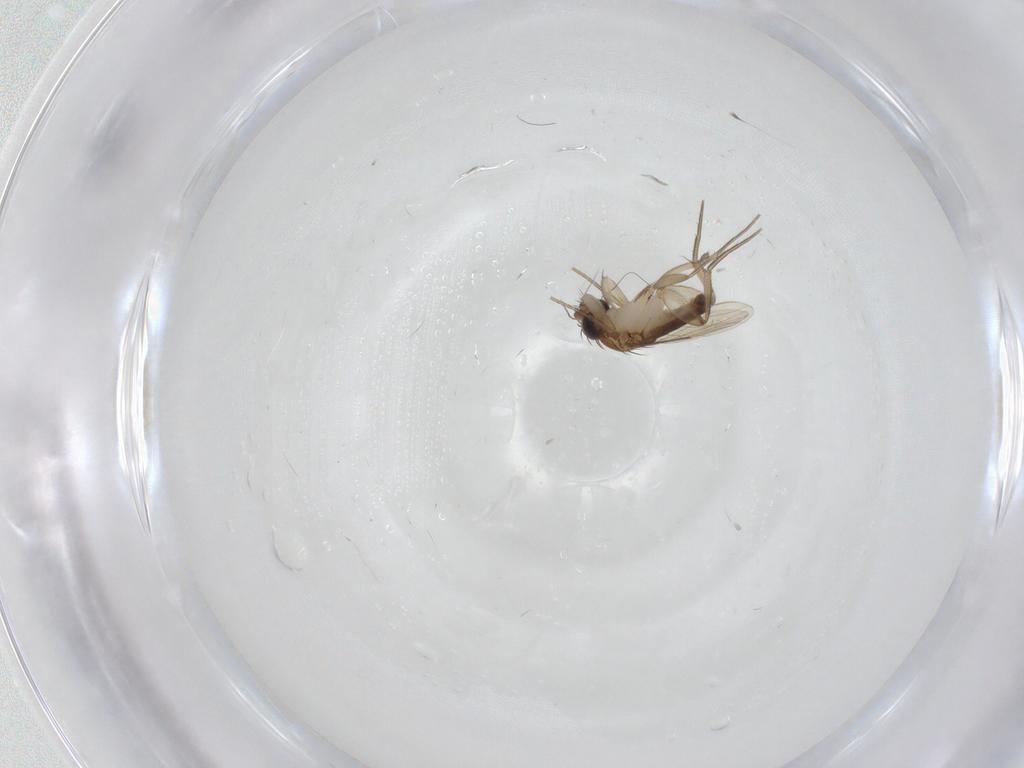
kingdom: Animalia
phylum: Arthropoda
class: Insecta
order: Diptera
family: Phoridae
